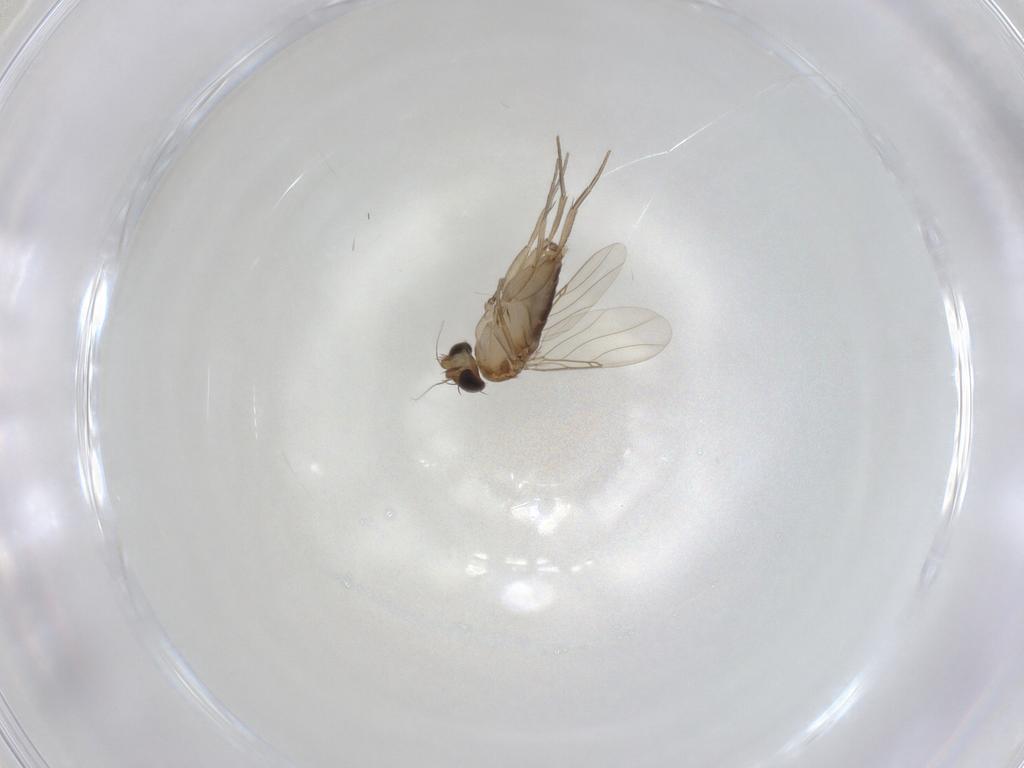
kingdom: Animalia
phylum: Arthropoda
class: Insecta
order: Diptera
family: Phoridae
